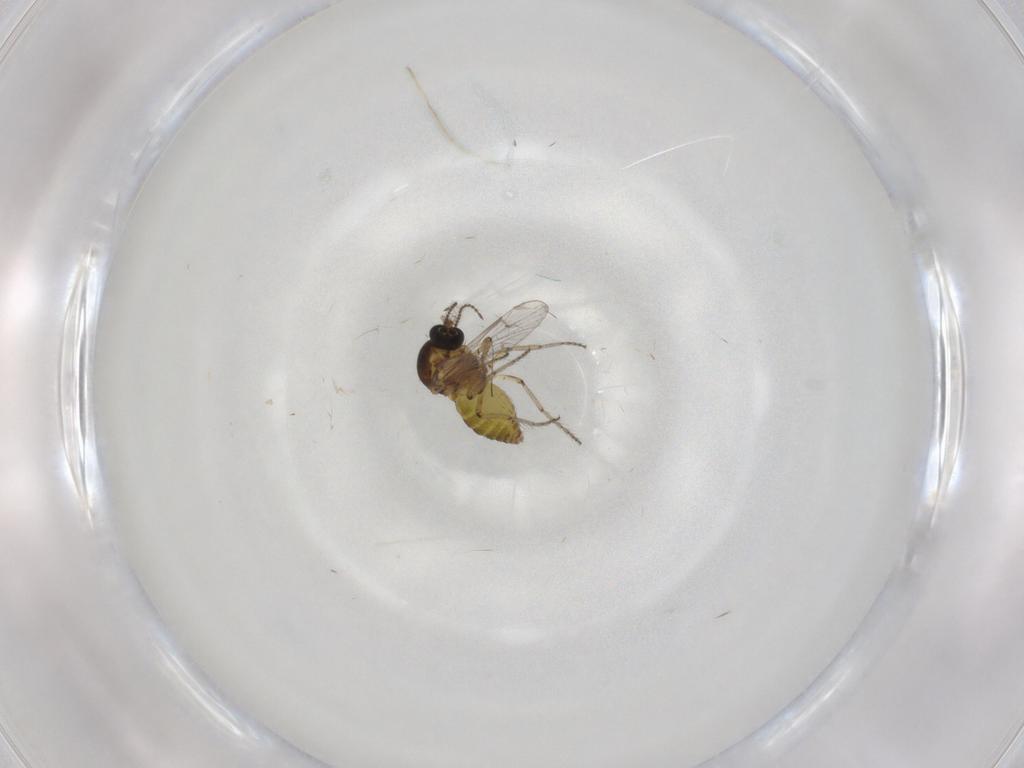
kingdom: Animalia
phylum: Arthropoda
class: Insecta
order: Diptera
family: Ceratopogonidae
